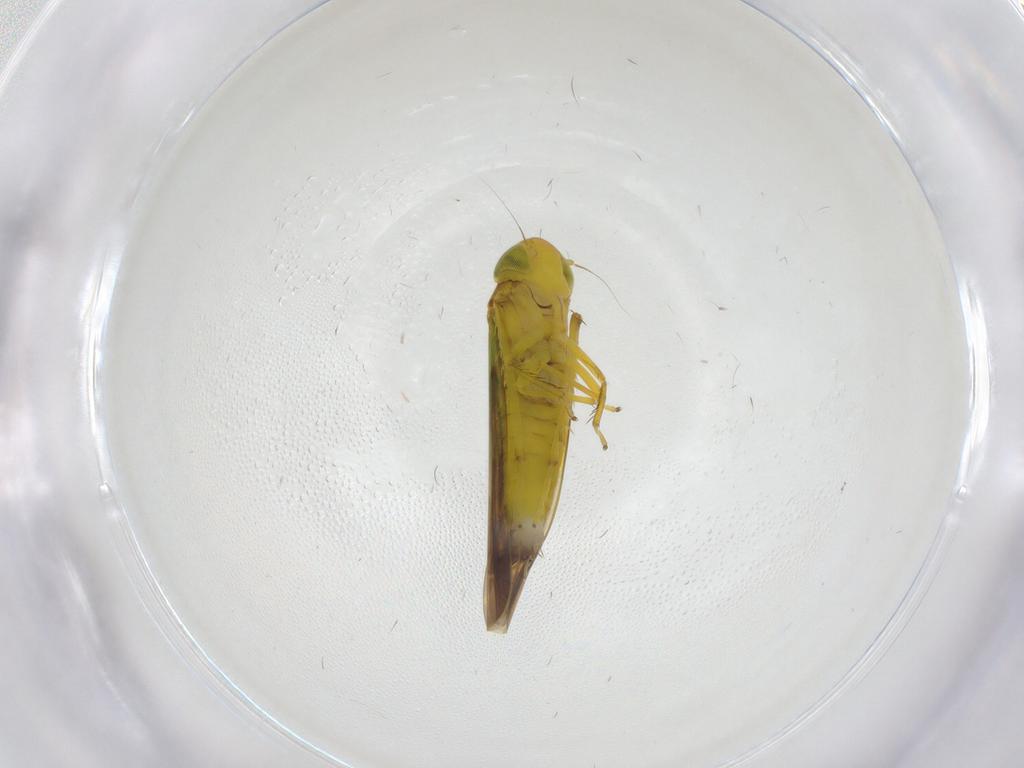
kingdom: Animalia
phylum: Arthropoda
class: Insecta
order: Hemiptera
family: Cicadellidae
